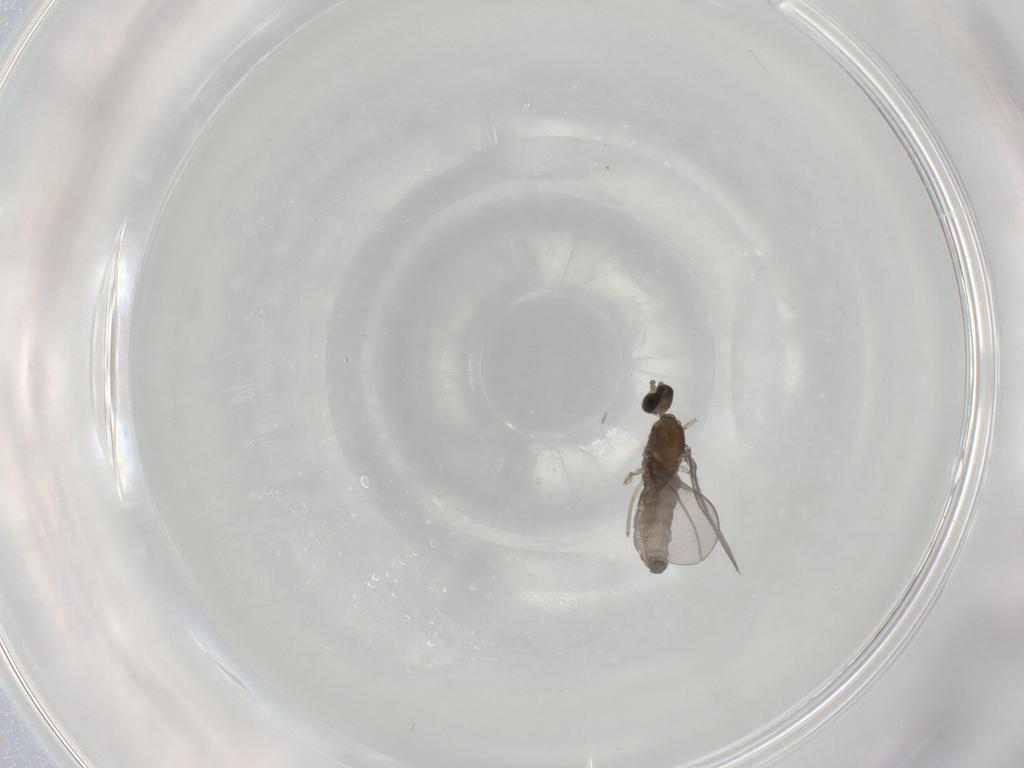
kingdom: Animalia
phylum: Arthropoda
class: Insecta
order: Diptera
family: Cecidomyiidae
